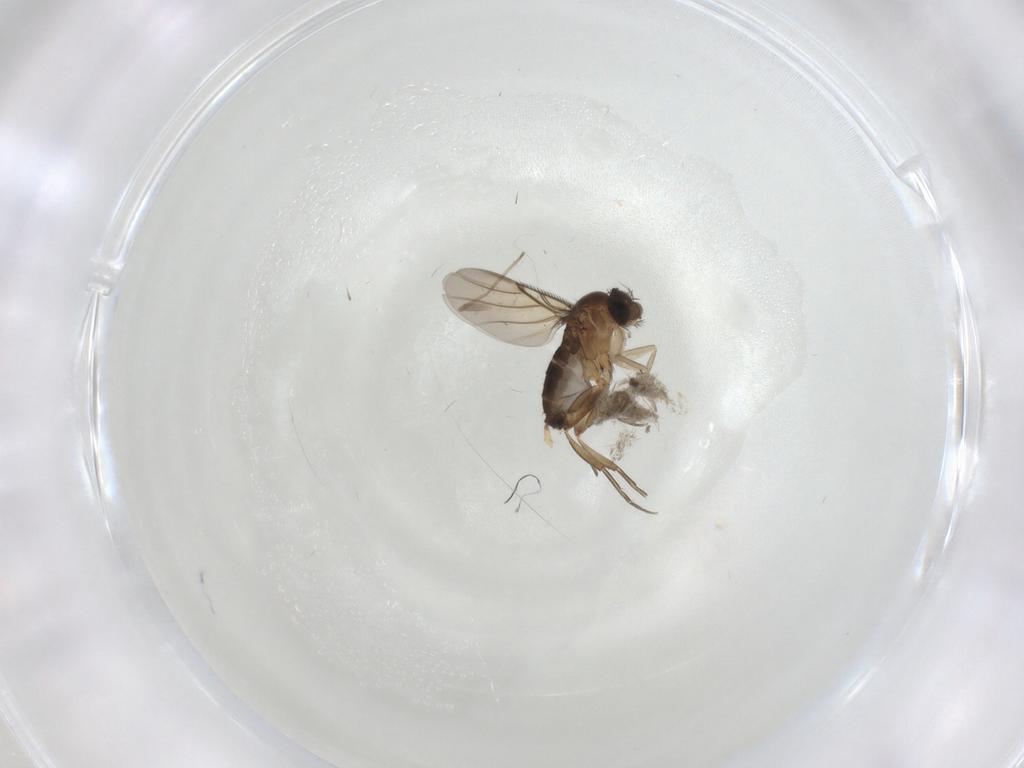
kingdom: Animalia
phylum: Arthropoda
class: Insecta
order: Diptera
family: Phoridae
